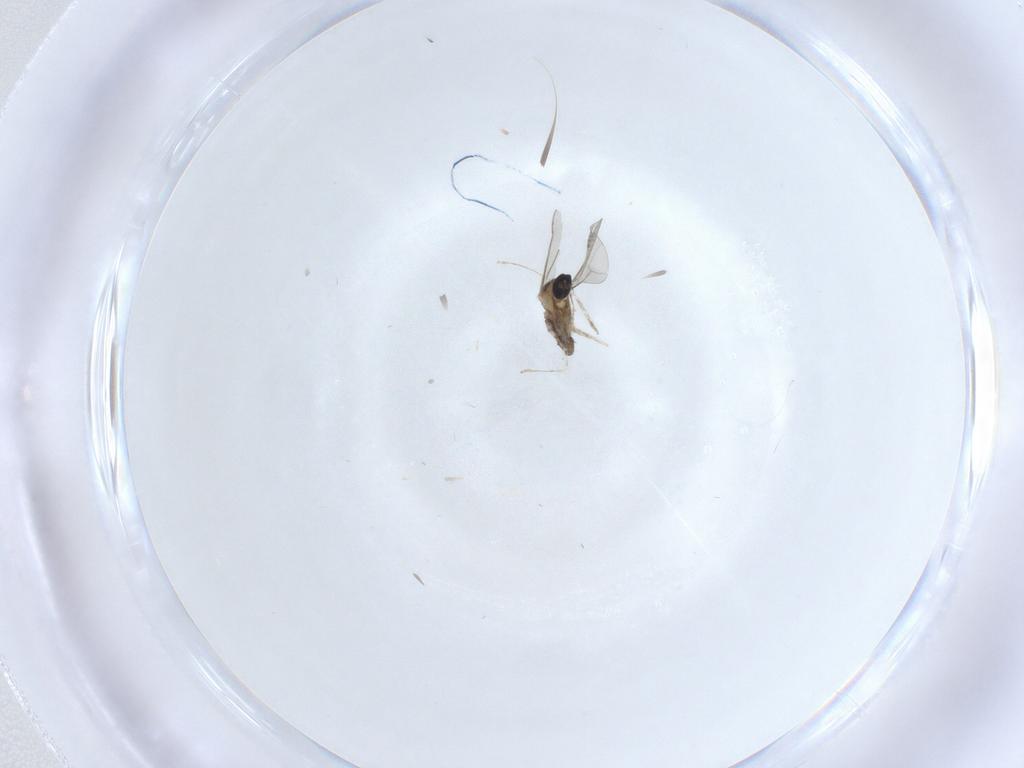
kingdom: Animalia
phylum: Arthropoda
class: Insecta
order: Diptera
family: Cecidomyiidae
